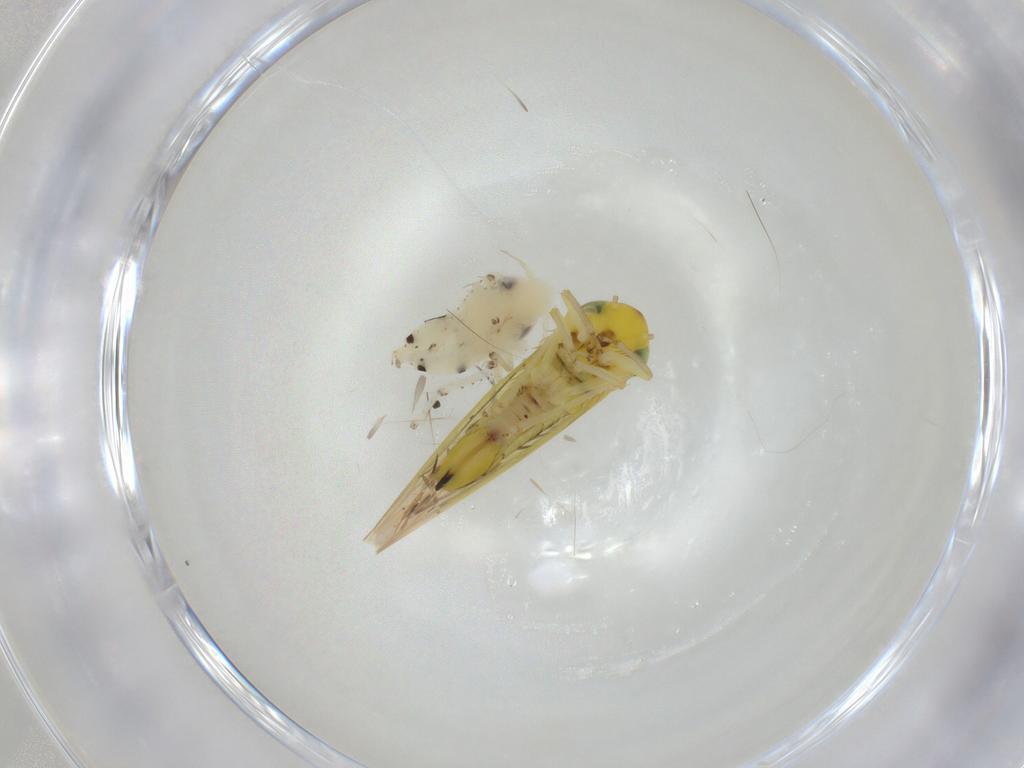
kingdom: Animalia
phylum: Arthropoda
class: Insecta
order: Hemiptera
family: Cicadellidae
